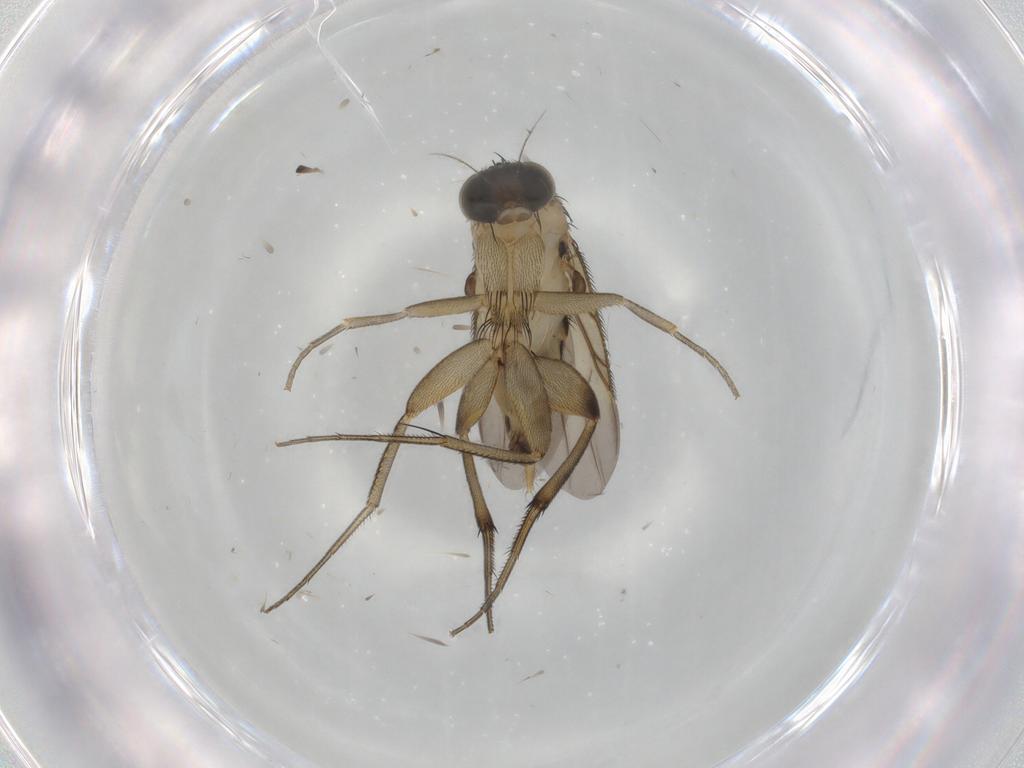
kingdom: Animalia
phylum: Arthropoda
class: Insecta
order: Diptera
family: Phoridae
